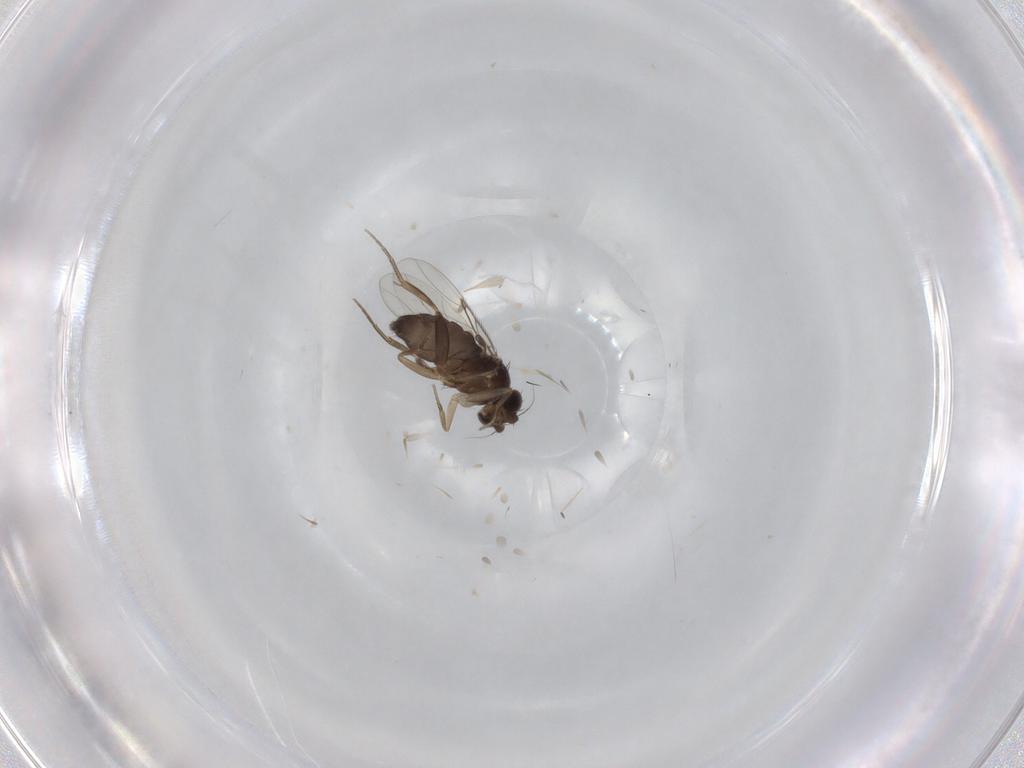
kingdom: Animalia
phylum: Arthropoda
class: Insecta
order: Diptera
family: Phoridae
